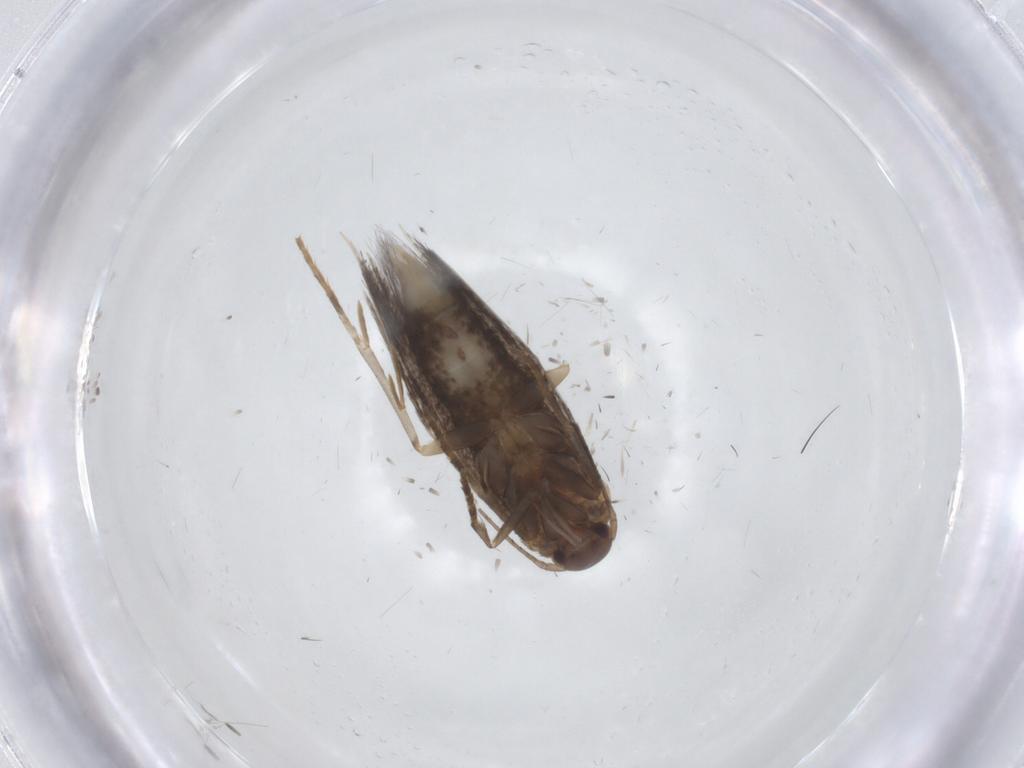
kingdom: Animalia
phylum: Arthropoda
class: Insecta
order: Lepidoptera
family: Elachistidae
